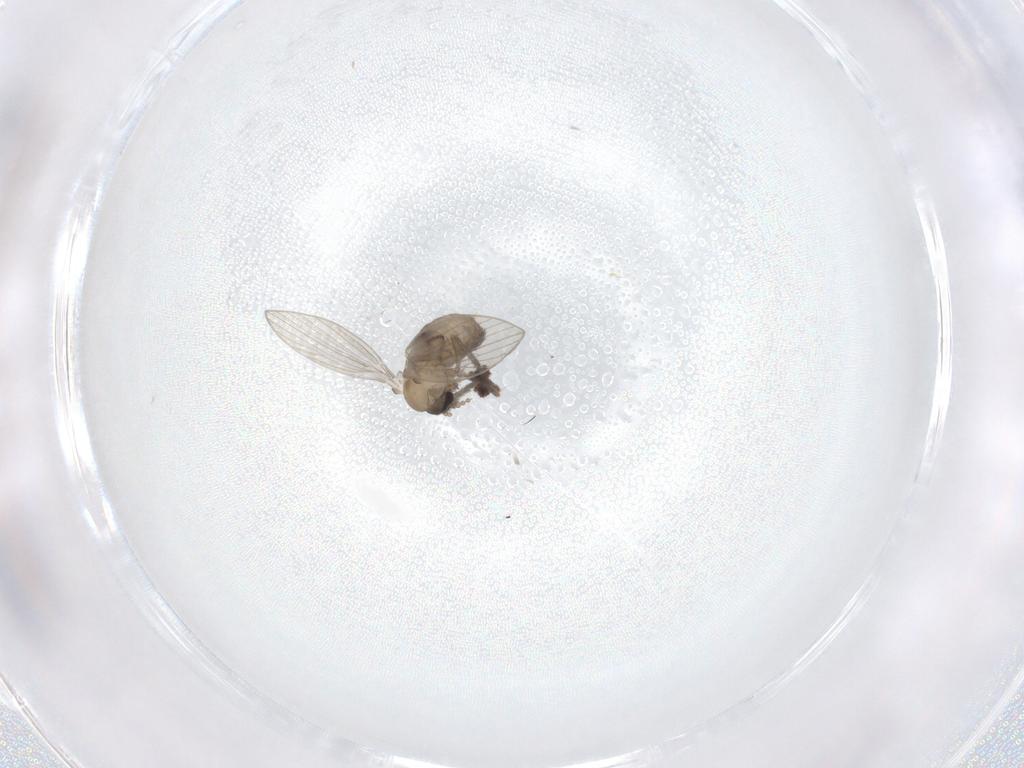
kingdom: Animalia
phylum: Arthropoda
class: Insecta
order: Diptera
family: Psychodidae
